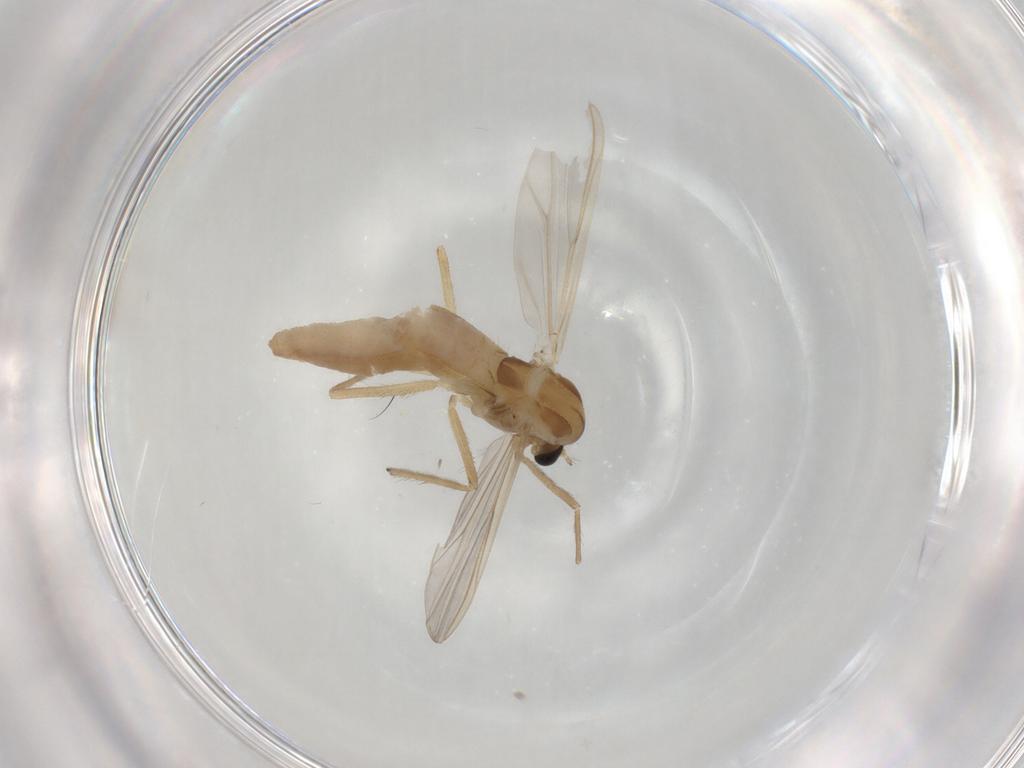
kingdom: Animalia
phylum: Arthropoda
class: Insecta
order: Diptera
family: Chironomidae
